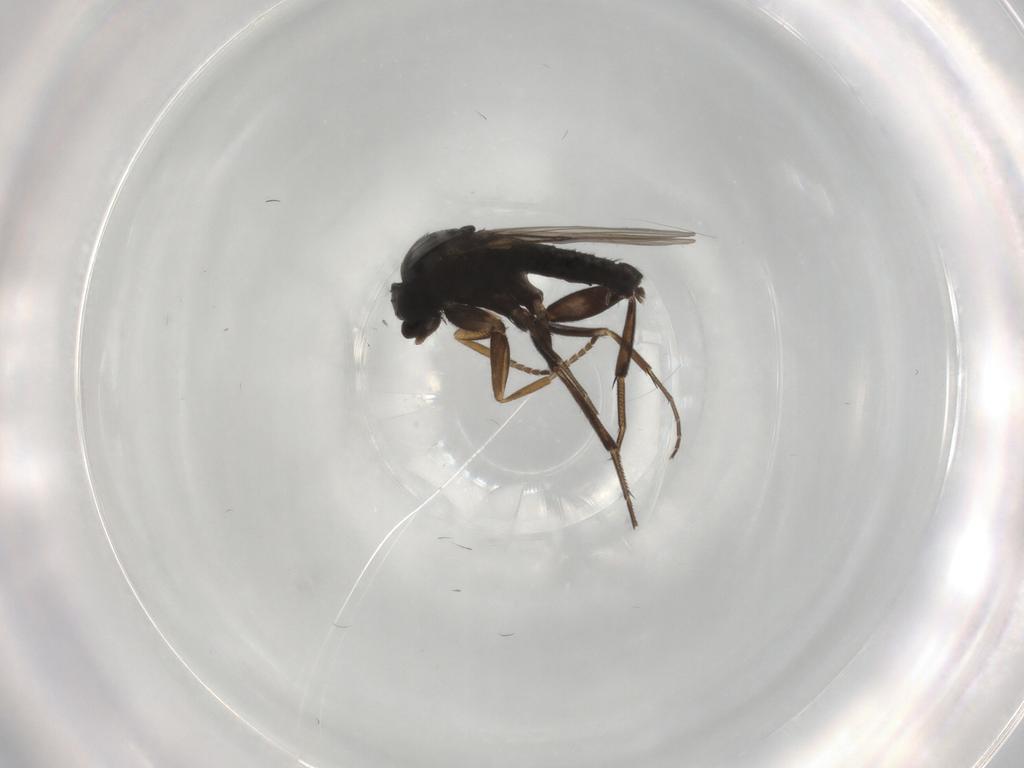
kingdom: Animalia
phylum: Arthropoda
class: Insecta
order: Diptera
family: Phoridae
